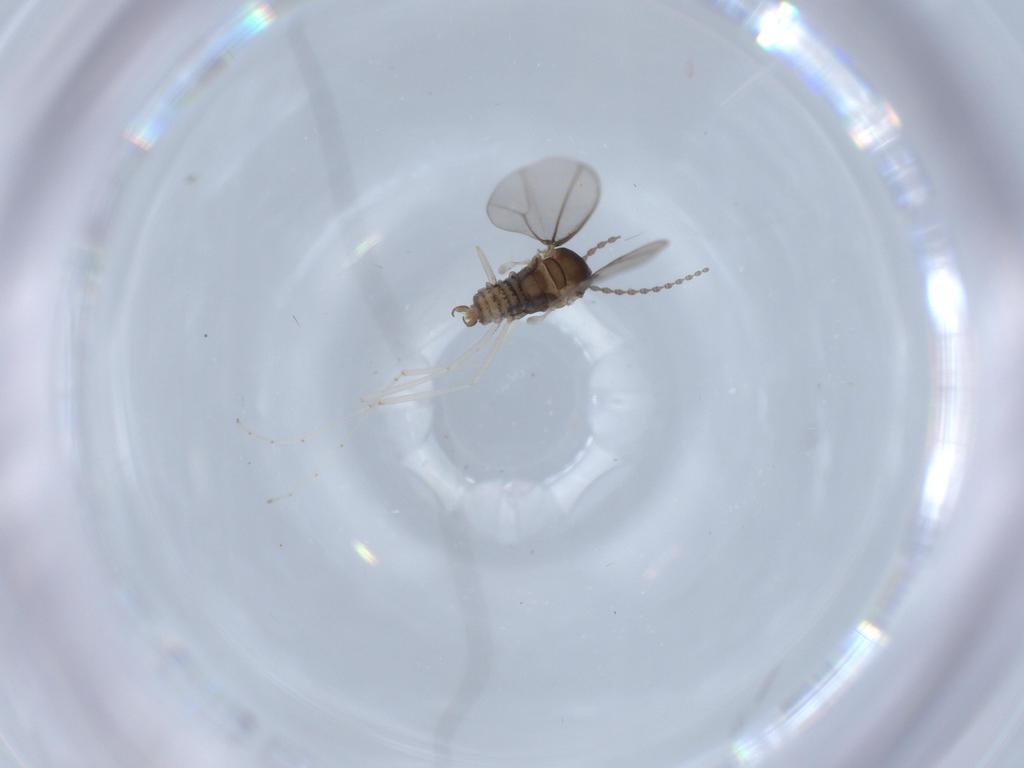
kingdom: Animalia
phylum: Arthropoda
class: Insecta
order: Diptera
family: Cecidomyiidae
